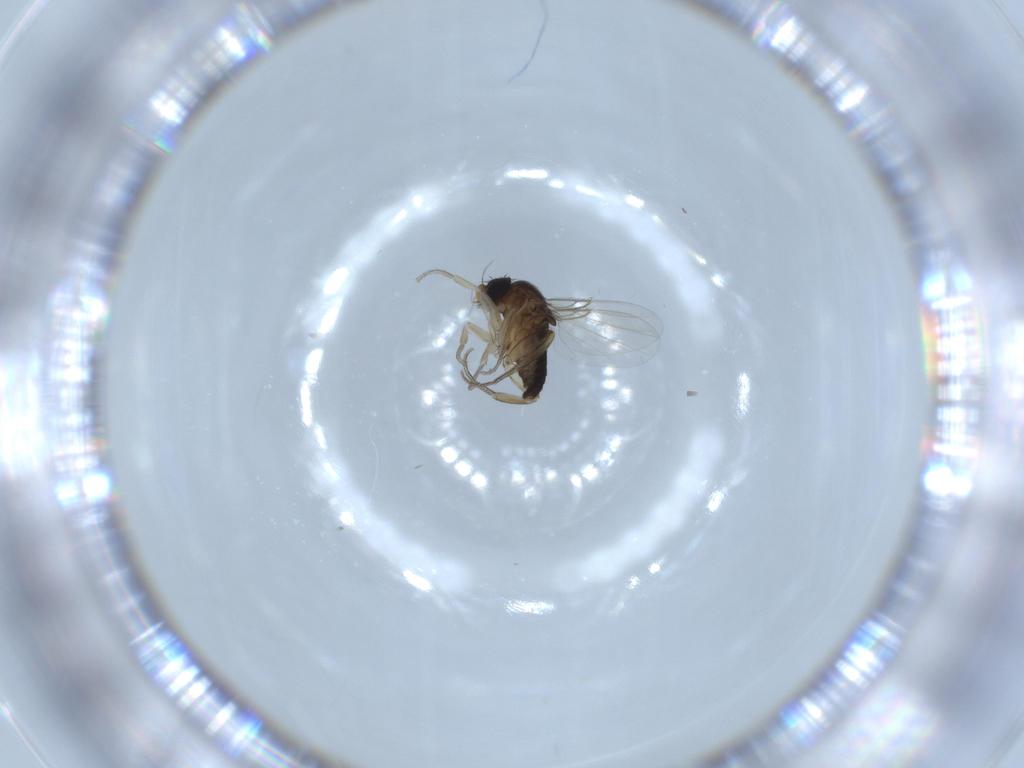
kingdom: Animalia
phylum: Arthropoda
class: Insecta
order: Diptera
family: Phoridae
